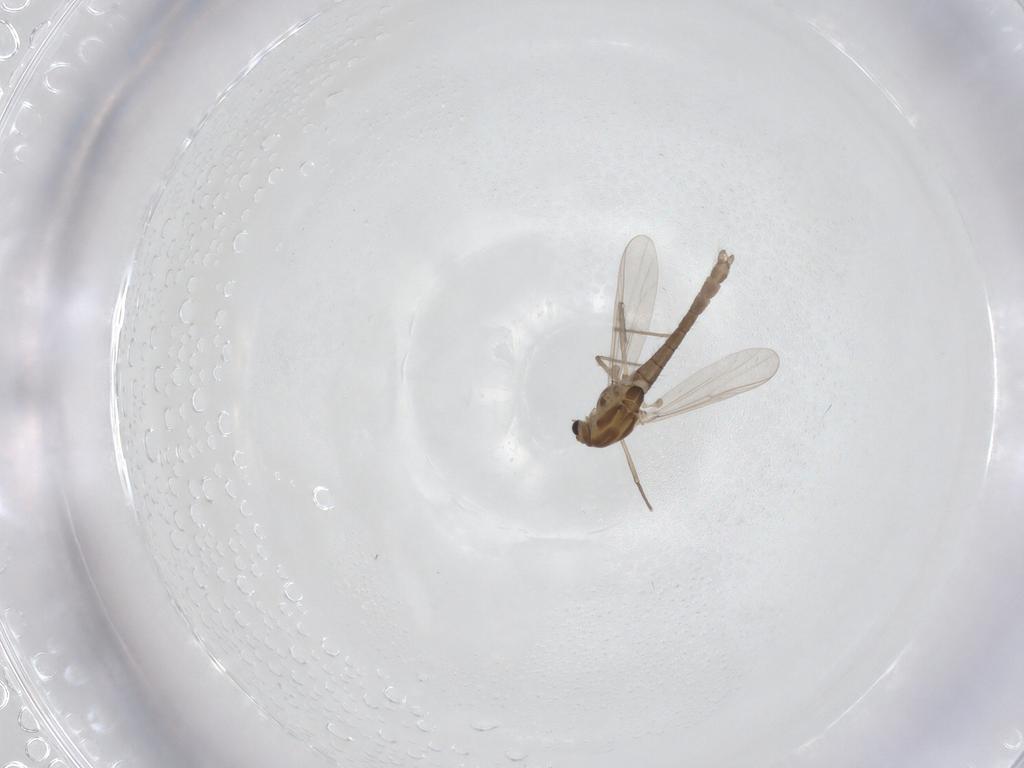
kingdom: Animalia
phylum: Arthropoda
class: Insecta
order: Diptera
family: Chironomidae
